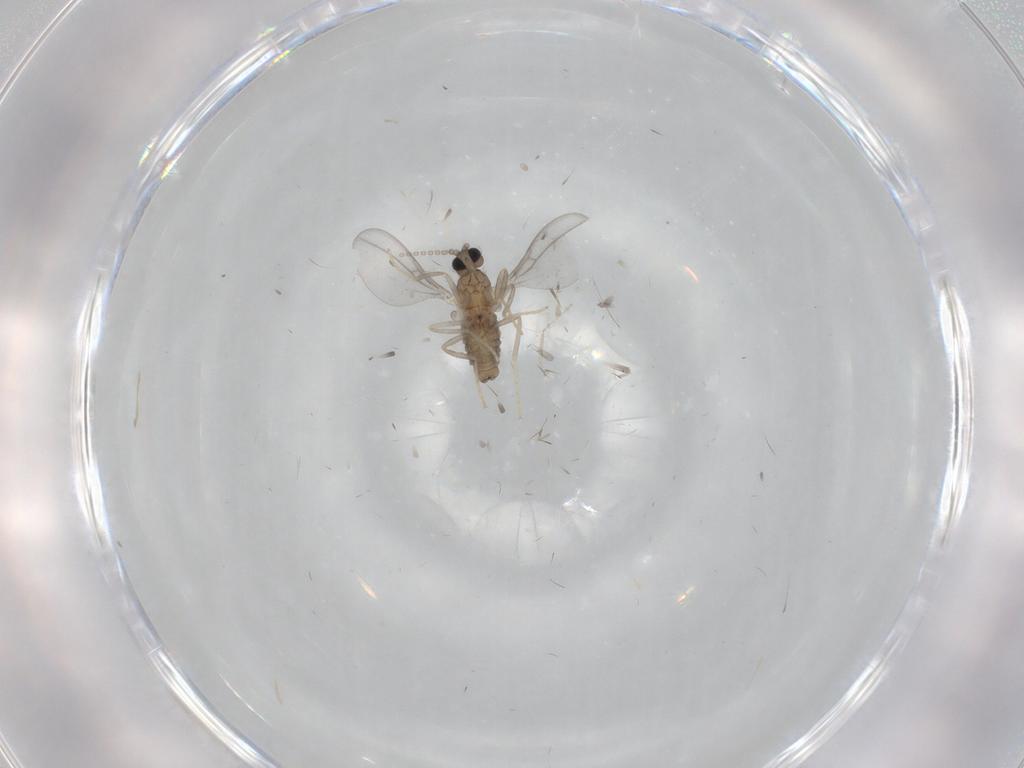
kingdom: Animalia
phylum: Arthropoda
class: Insecta
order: Diptera
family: Cecidomyiidae
